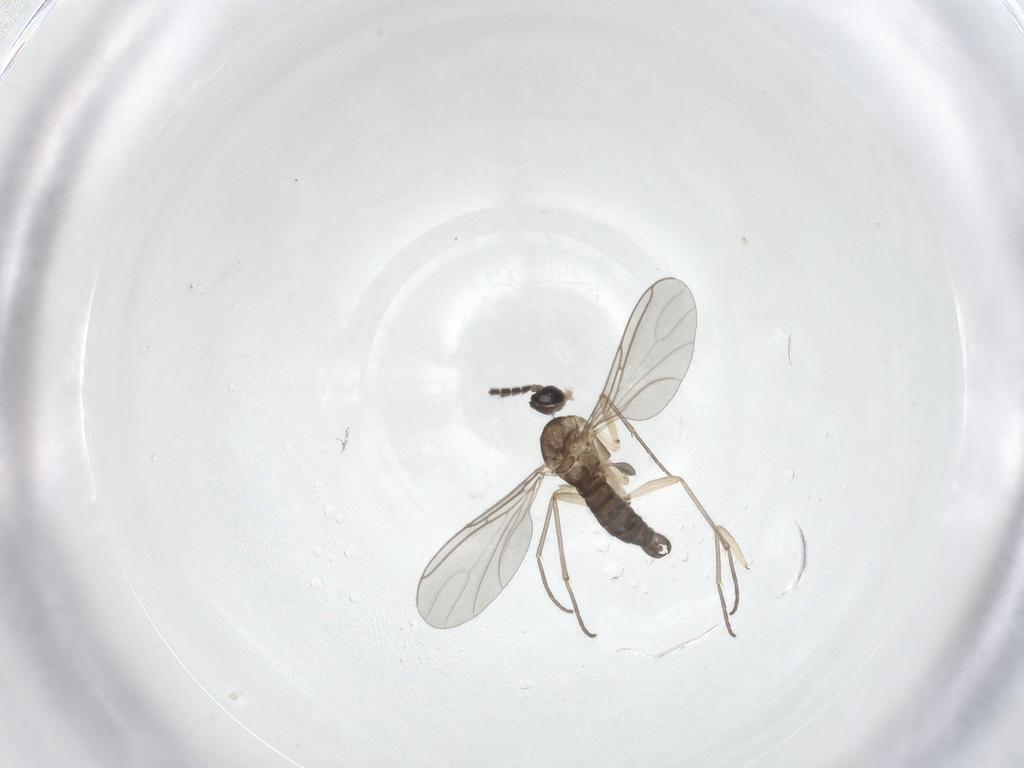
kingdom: Animalia
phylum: Arthropoda
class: Insecta
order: Diptera
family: Sciaridae
